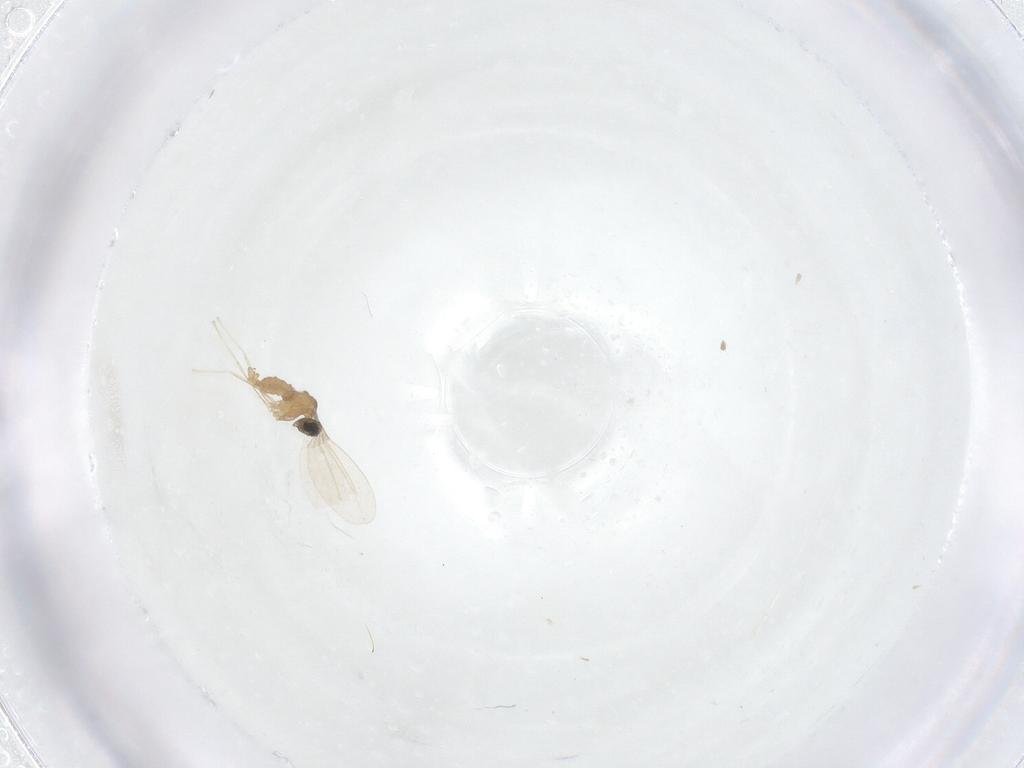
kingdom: Animalia
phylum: Arthropoda
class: Insecta
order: Diptera
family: Cecidomyiidae
